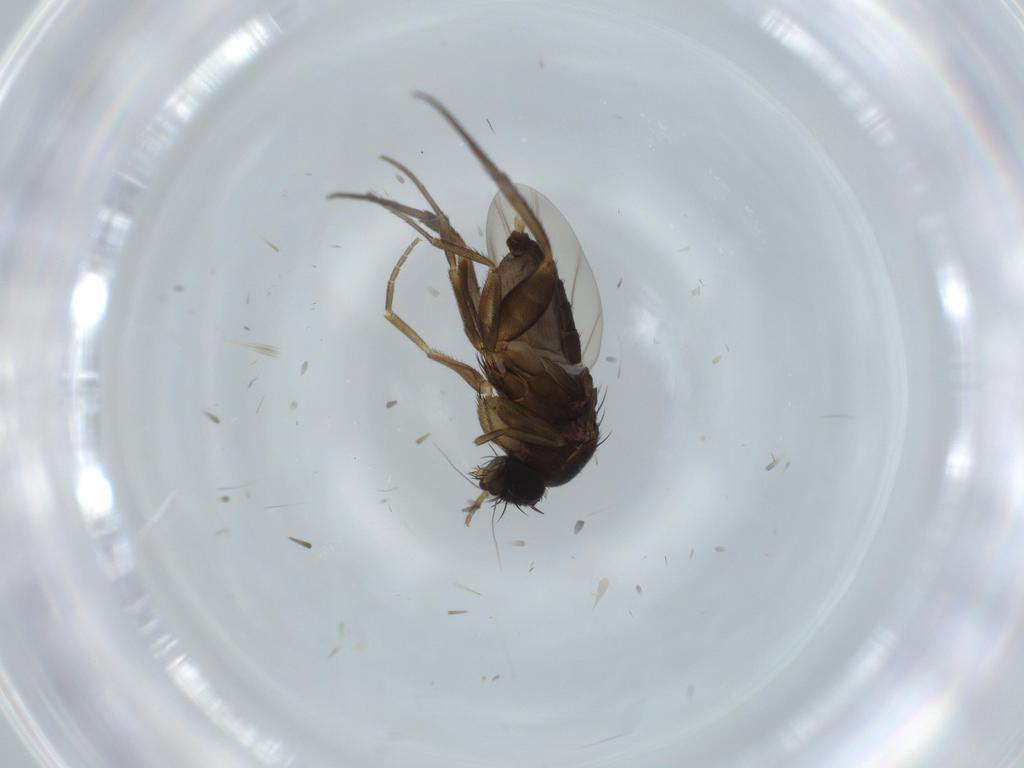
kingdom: Animalia
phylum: Arthropoda
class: Insecta
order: Diptera
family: Phoridae
